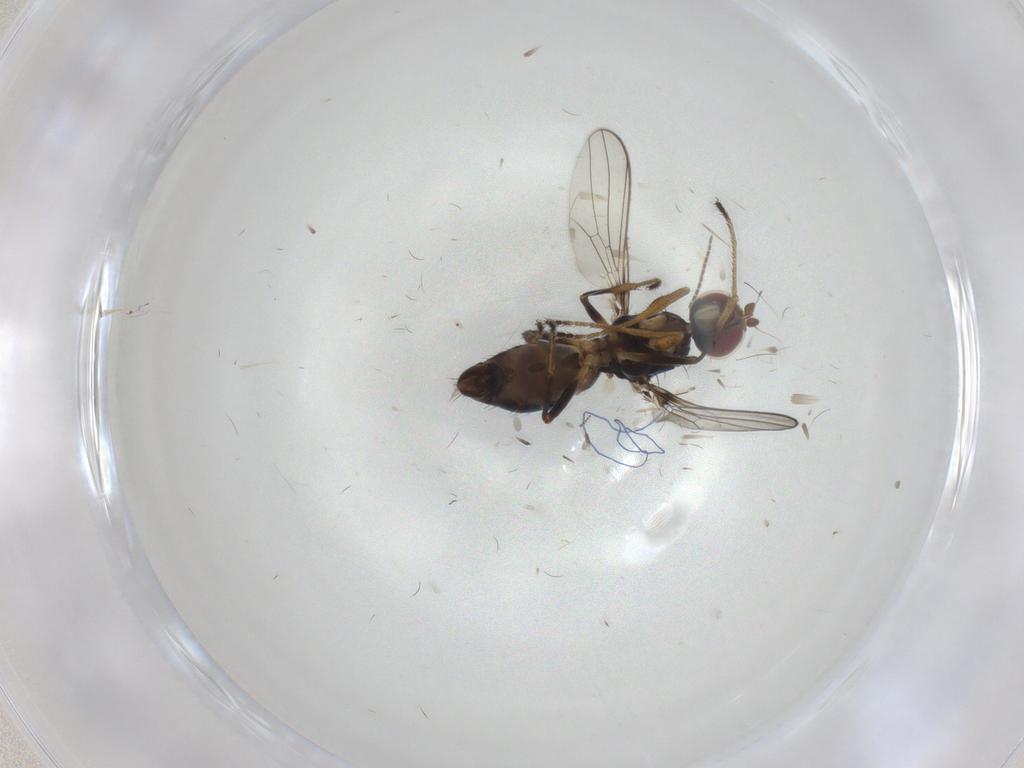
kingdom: Animalia
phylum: Arthropoda
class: Insecta
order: Diptera
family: Sepsidae
